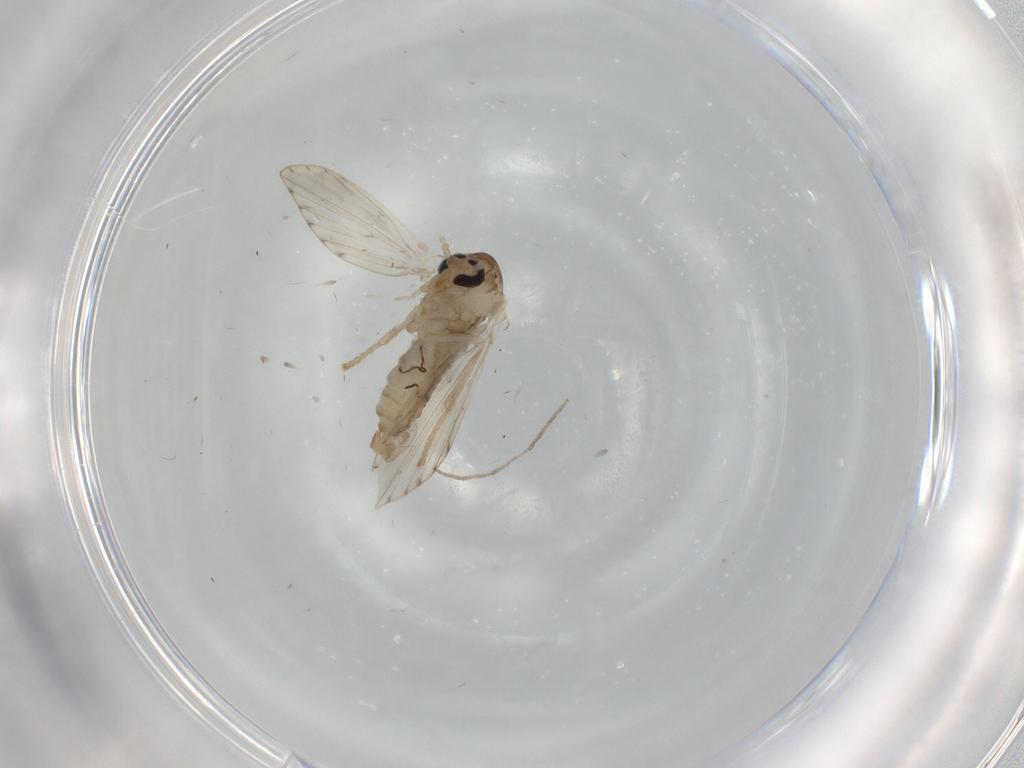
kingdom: Animalia
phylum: Arthropoda
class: Insecta
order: Diptera
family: Chironomidae
